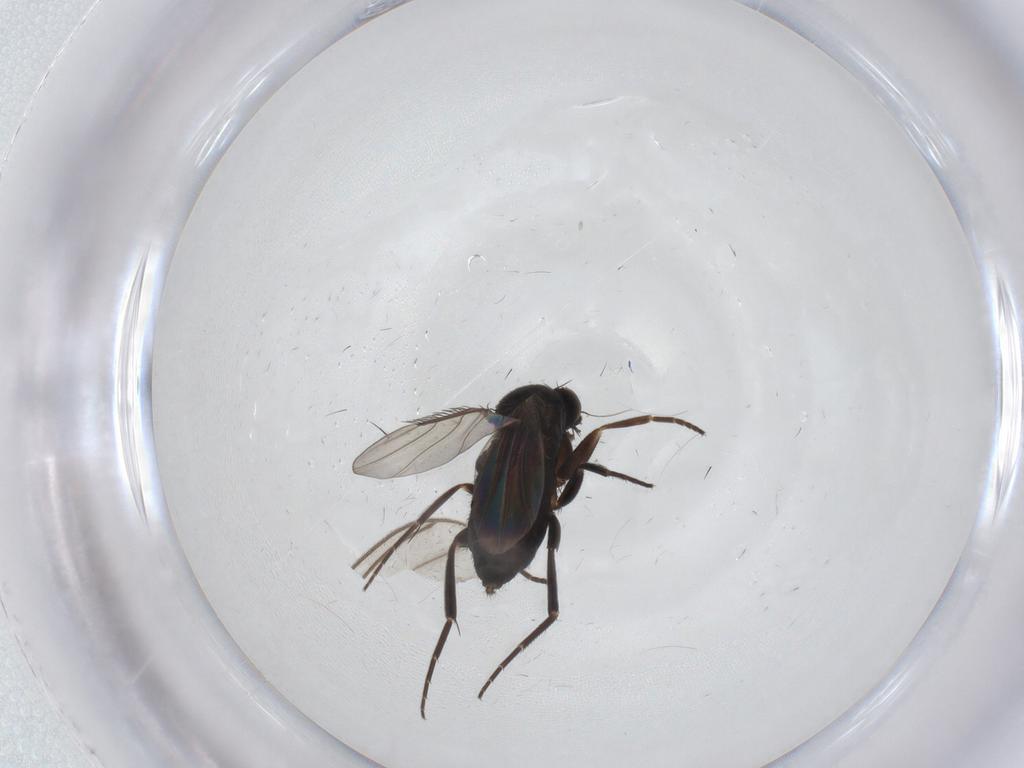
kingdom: Animalia
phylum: Arthropoda
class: Insecta
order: Diptera
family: Phoridae
